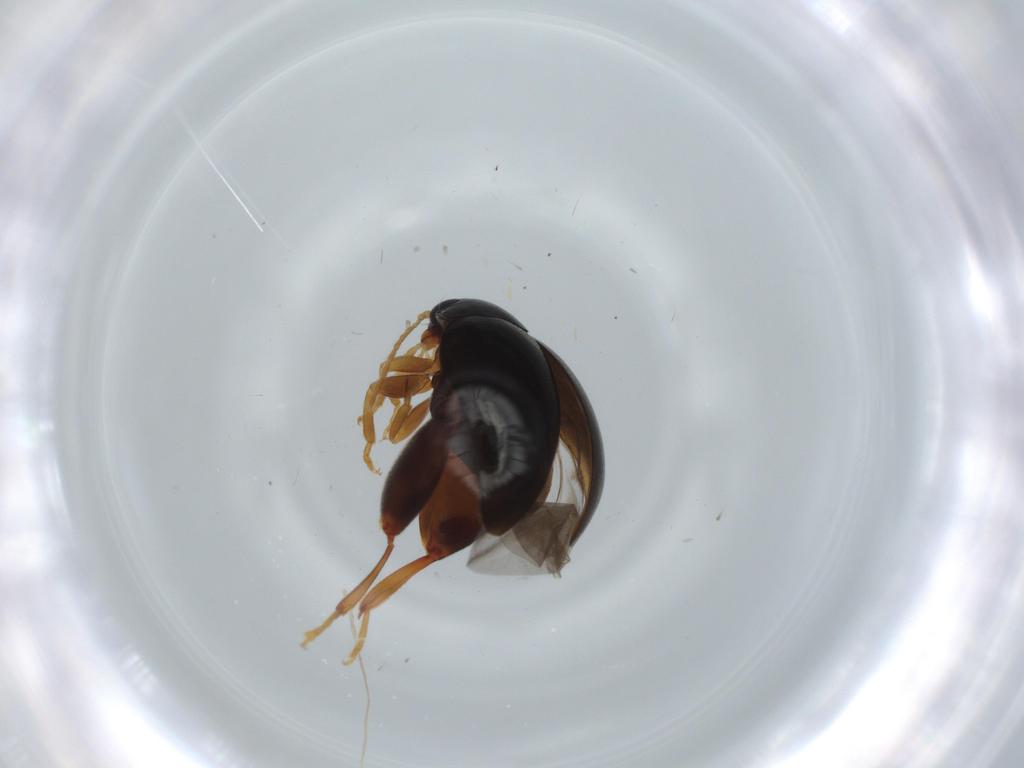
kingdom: Animalia
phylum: Arthropoda
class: Insecta
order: Coleoptera
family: Chrysomelidae
